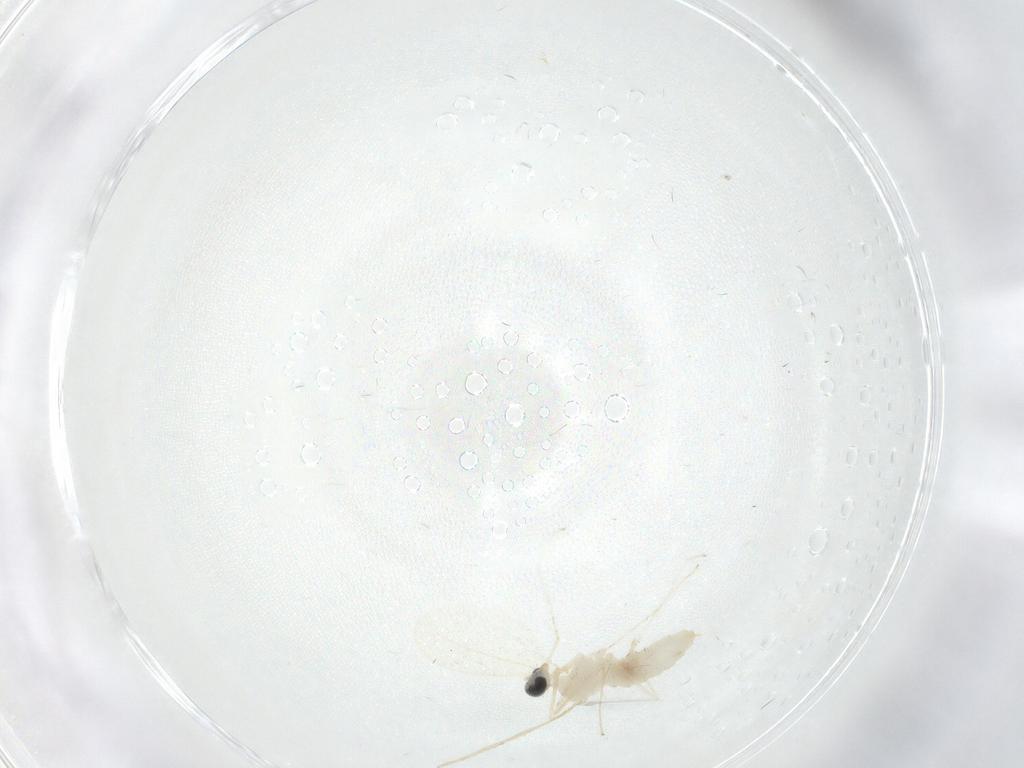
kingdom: Animalia
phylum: Arthropoda
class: Insecta
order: Diptera
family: Cecidomyiidae
